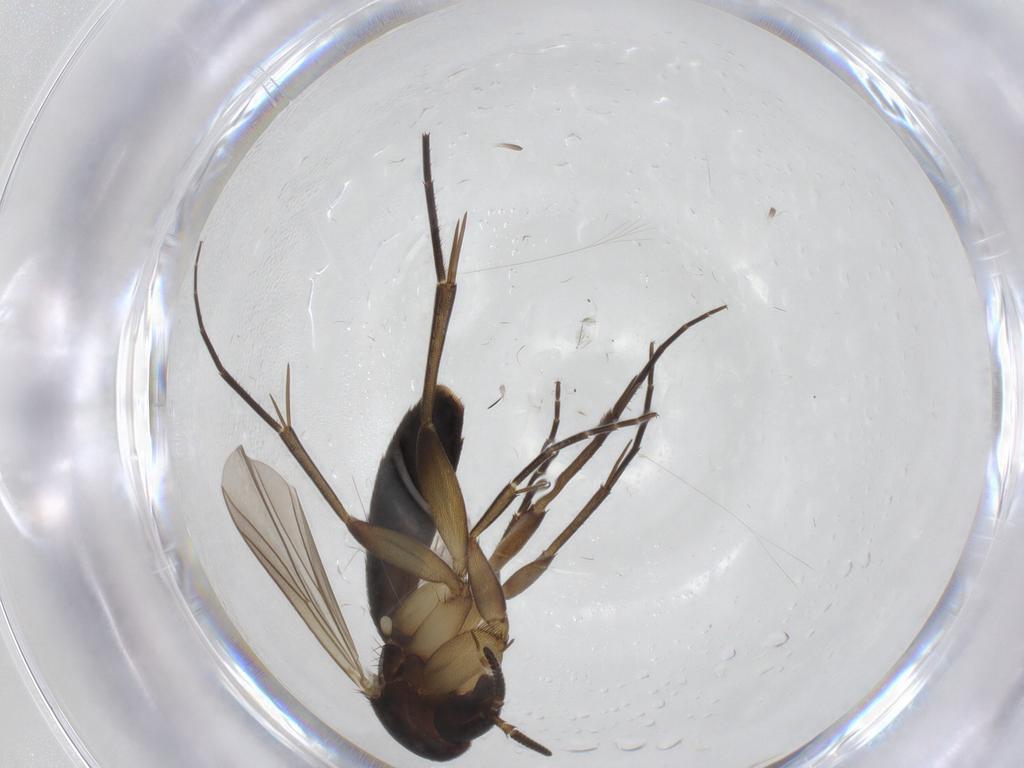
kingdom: Animalia
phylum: Arthropoda
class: Insecta
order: Diptera
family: Mycetophilidae
